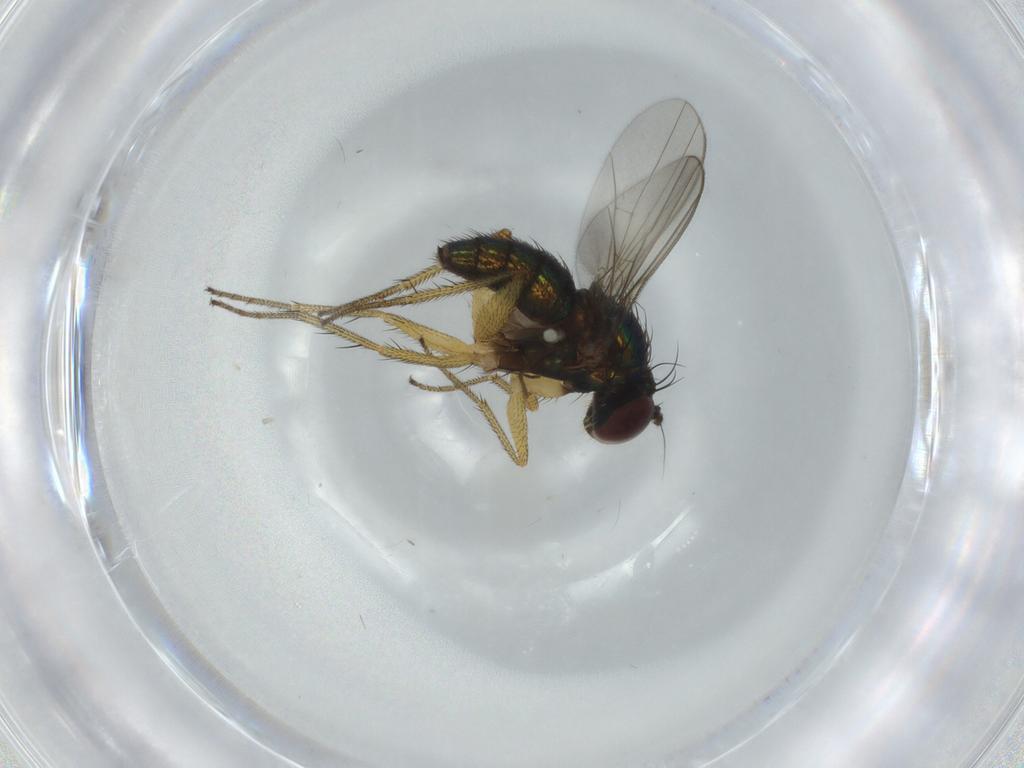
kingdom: Animalia
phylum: Arthropoda
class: Insecta
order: Diptera
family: Dolichopodidae
